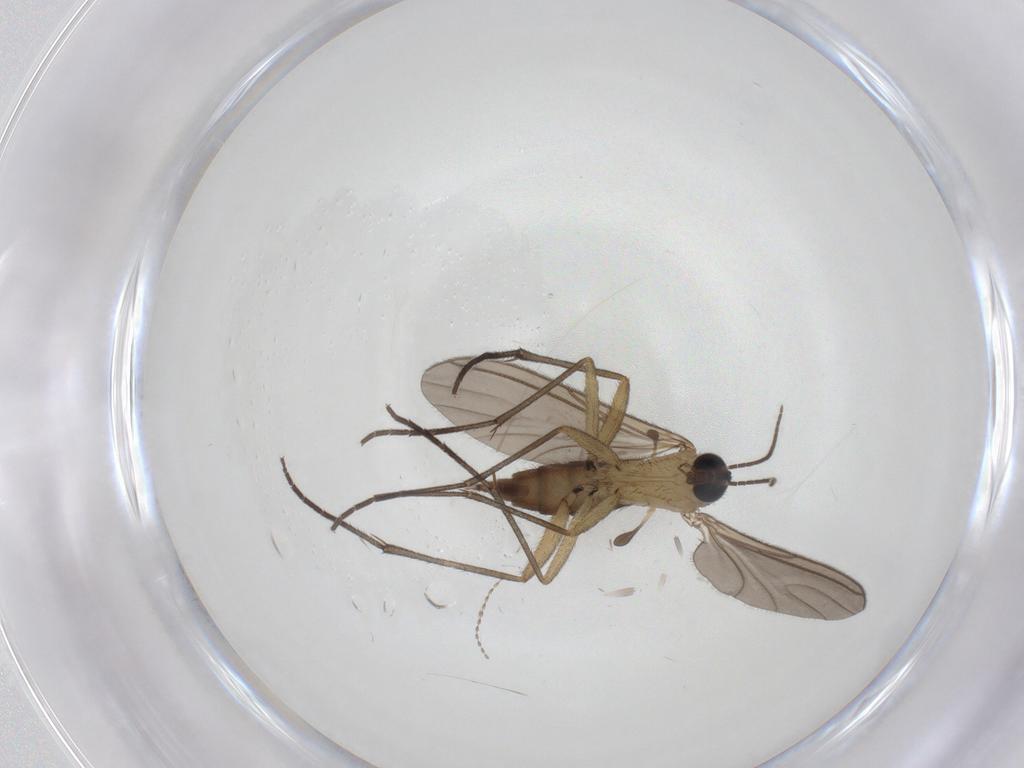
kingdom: Animalia
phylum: Arthropoda
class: Insecta
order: Diptera
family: Sciaridae
